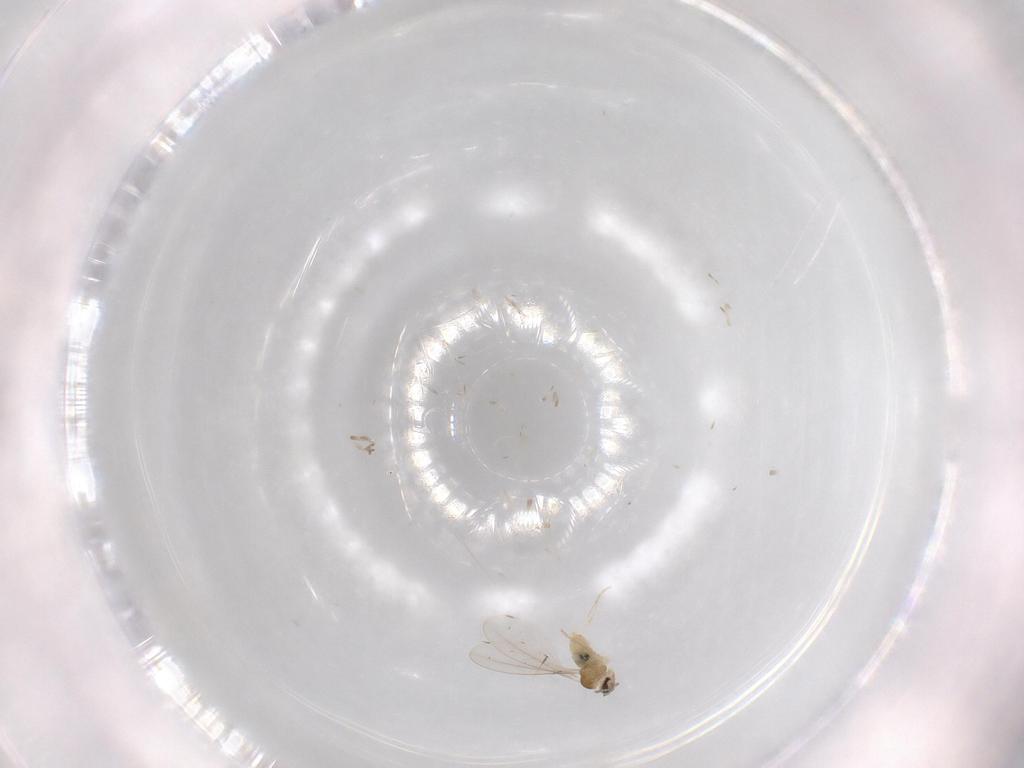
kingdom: Animalia
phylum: Arthropoda
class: Insecta
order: Diptera
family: Cecidomyiidae
